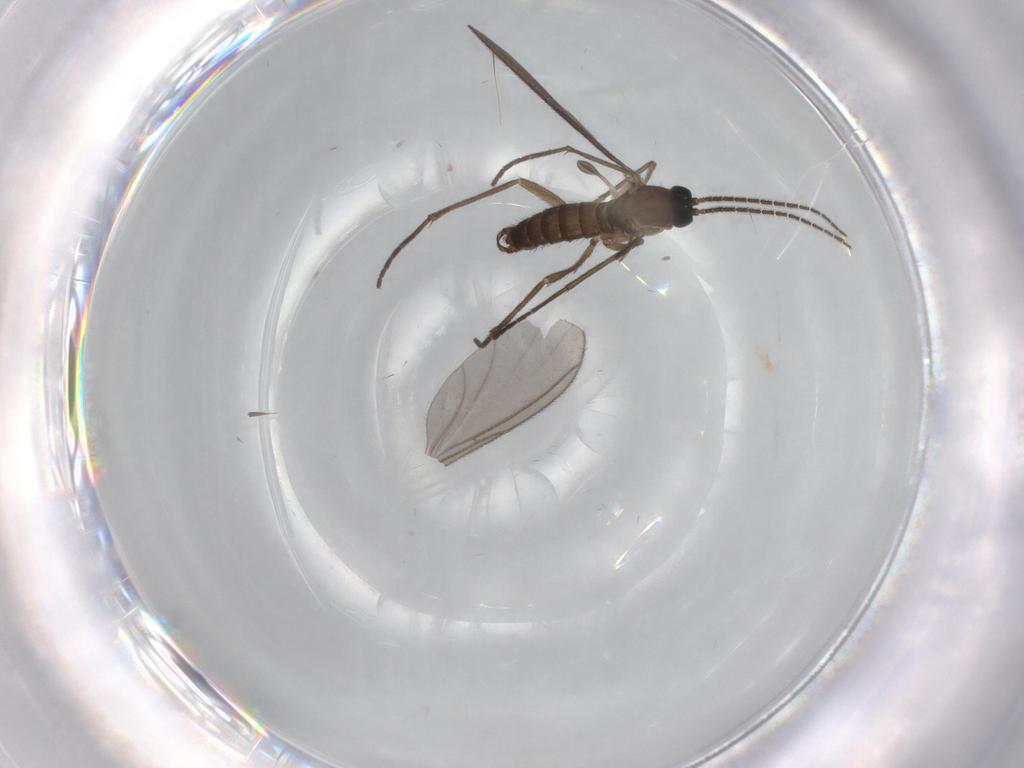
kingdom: Animalia
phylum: Arthropoda
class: Insecta
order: Diptera
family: Sciaridae
